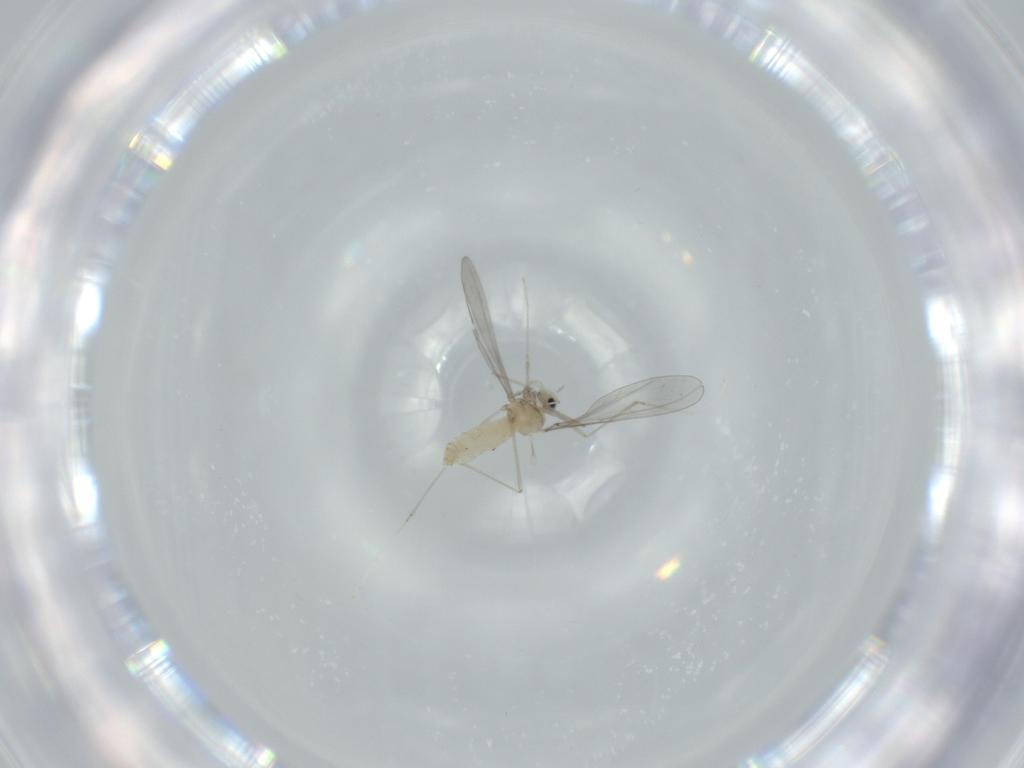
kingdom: Animalia
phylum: Arthropoda
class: Insecta
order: Diptera
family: Cecidomyiidae
